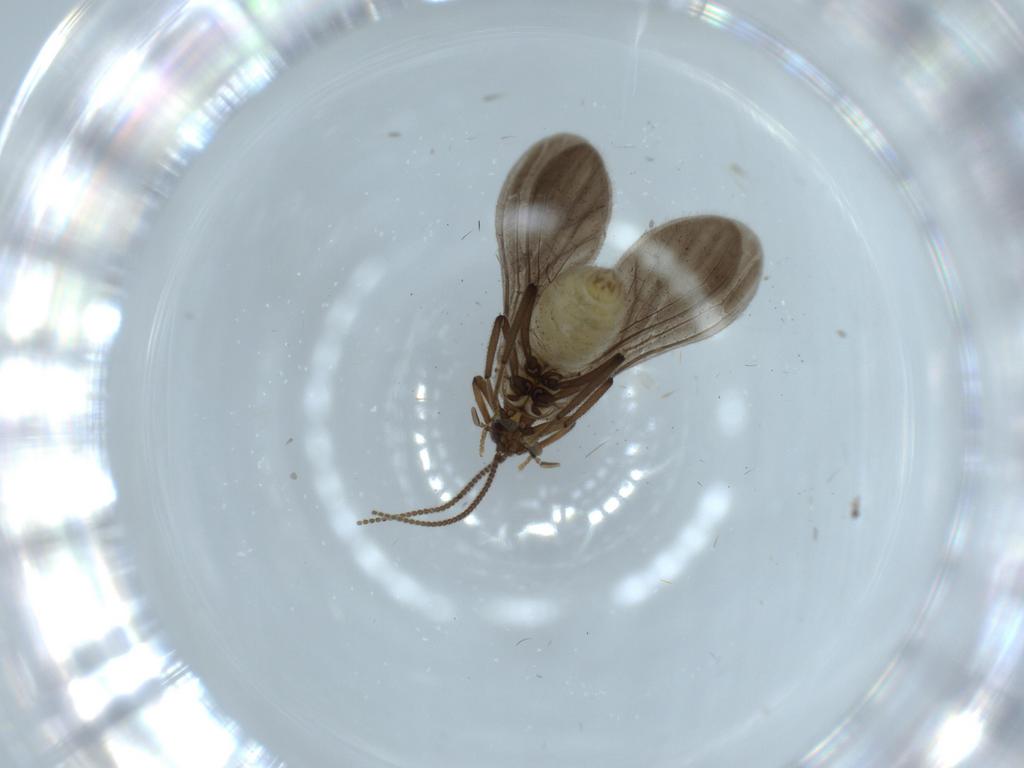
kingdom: Animalia
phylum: Arthropoda
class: Insecta
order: Neuroptera
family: Coniopterygidae
